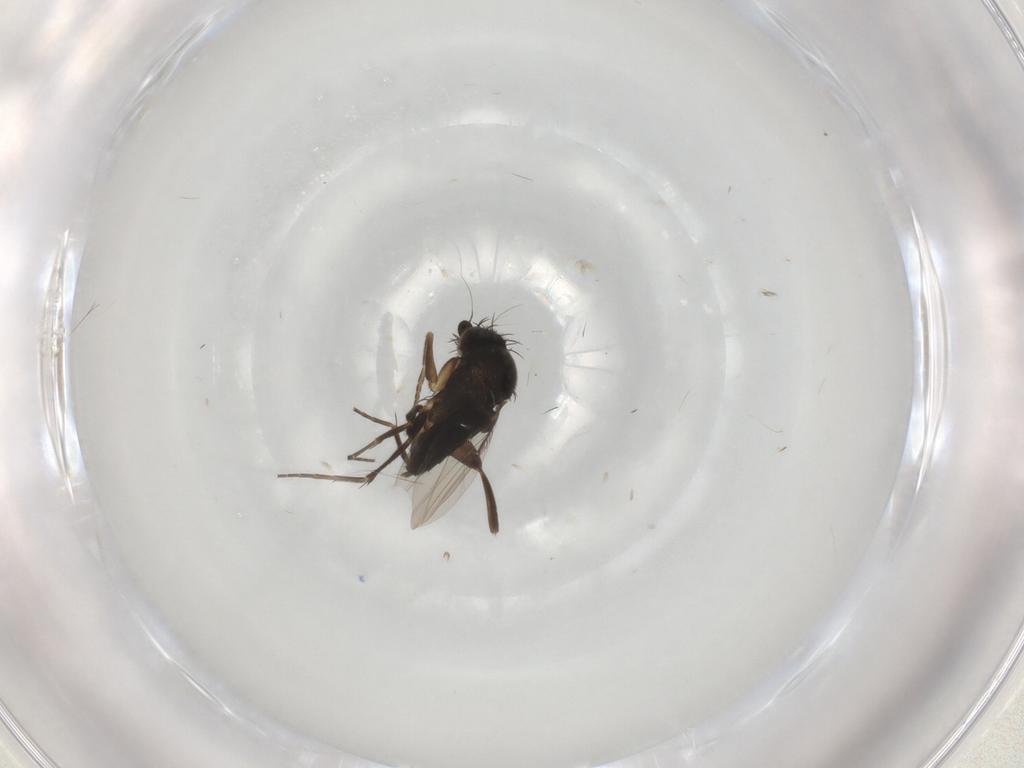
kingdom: Animalia
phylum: Arthropoda
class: Insecta
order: Diptera
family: Phoridae
